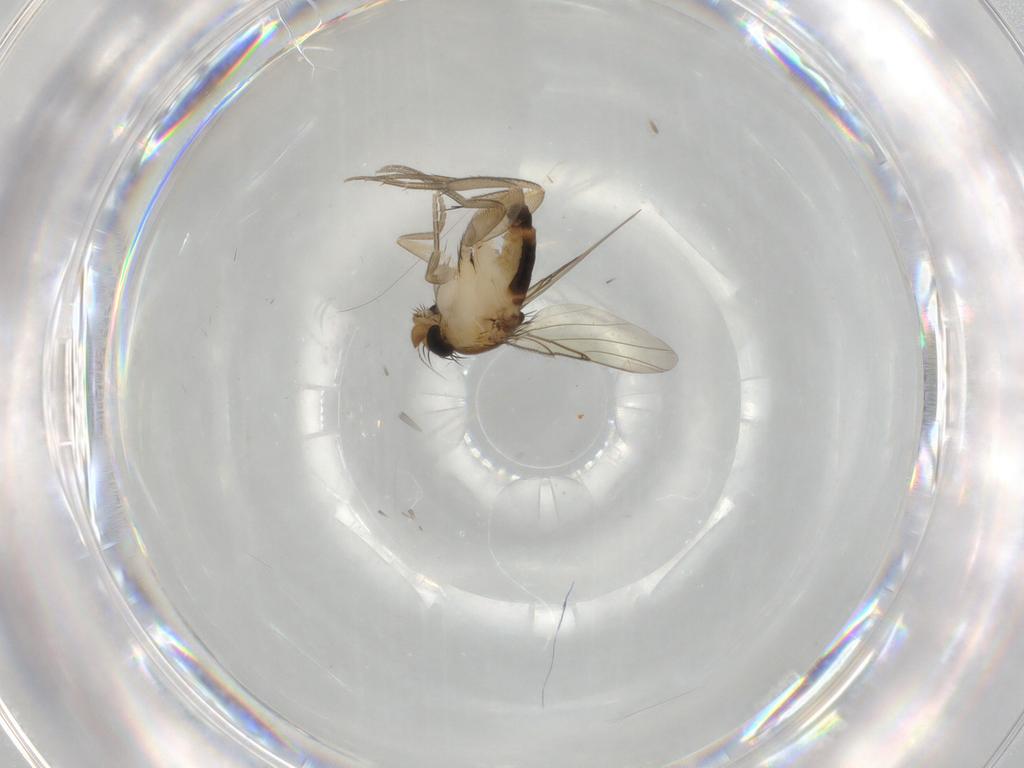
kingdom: Animalia
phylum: Arthropoda
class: Insecta
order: Diptera
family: Phoridae
